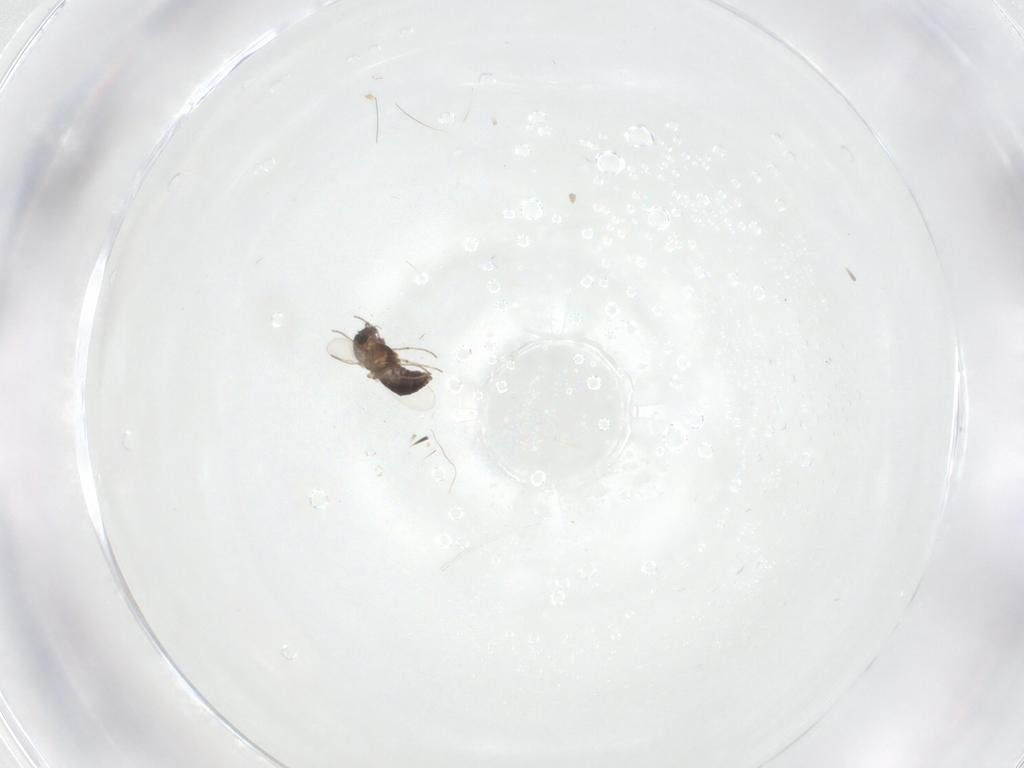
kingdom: Animalia
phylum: Arthropoda
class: Insecta
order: Diptera
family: Chironomidae
